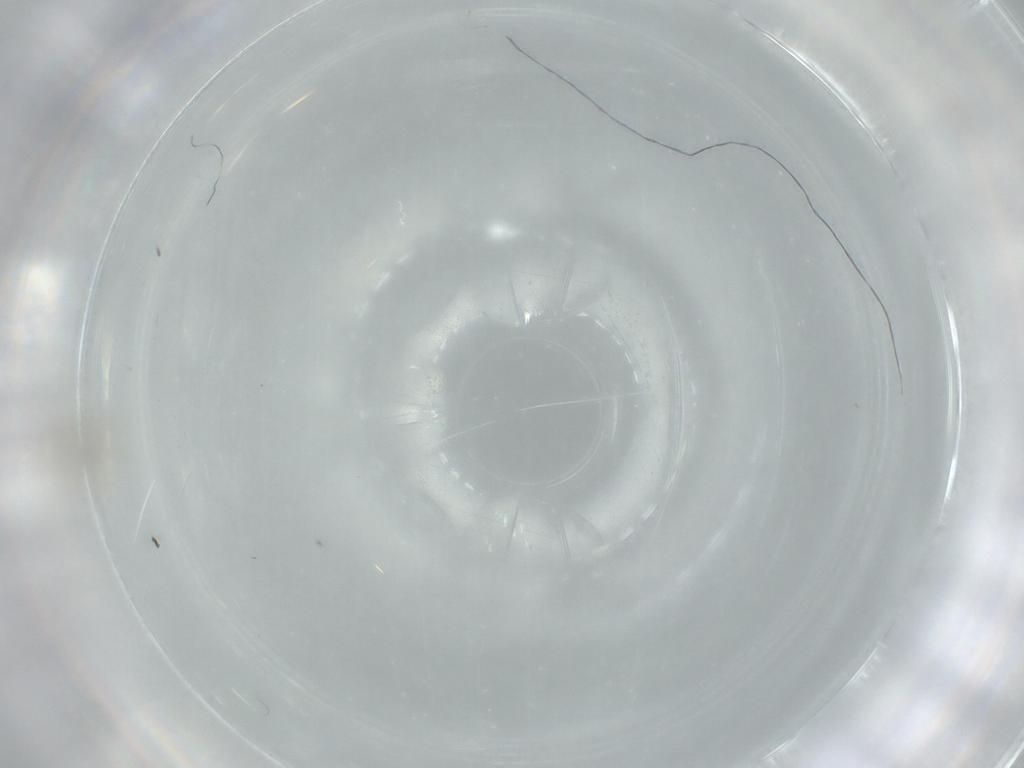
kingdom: Animalia
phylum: Arthropoda
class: Insecta
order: Diptera
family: Cecidomyiidae
